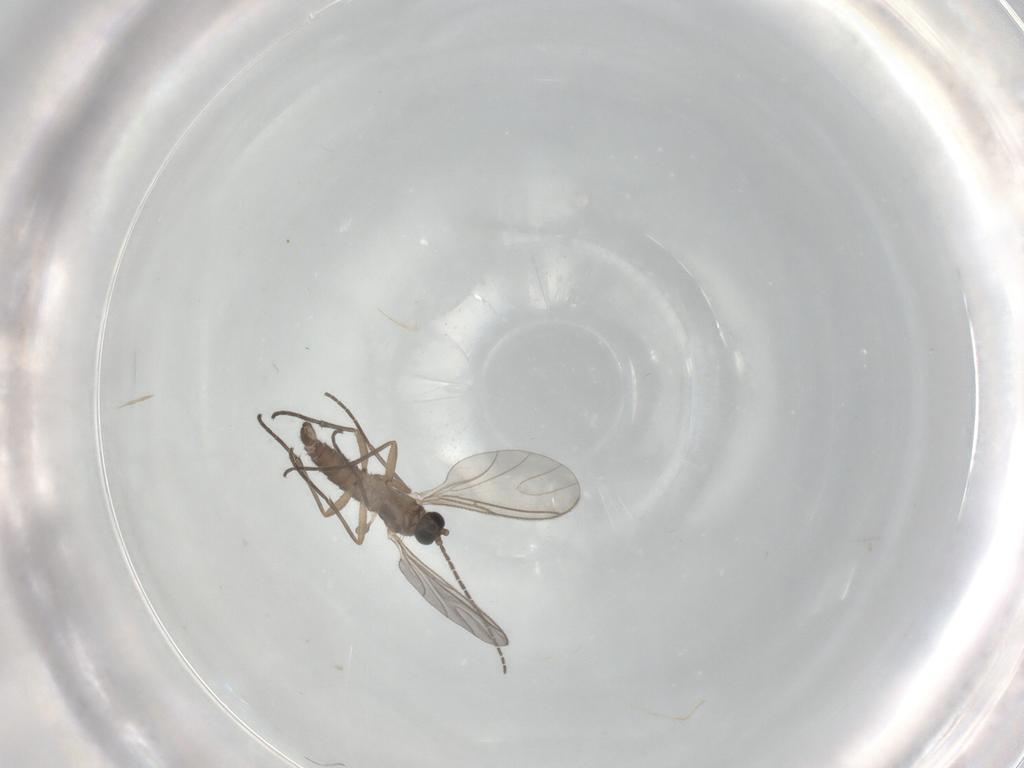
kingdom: Animalia
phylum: Arthropoda
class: Insecta
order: Diptera
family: Sciaridae
